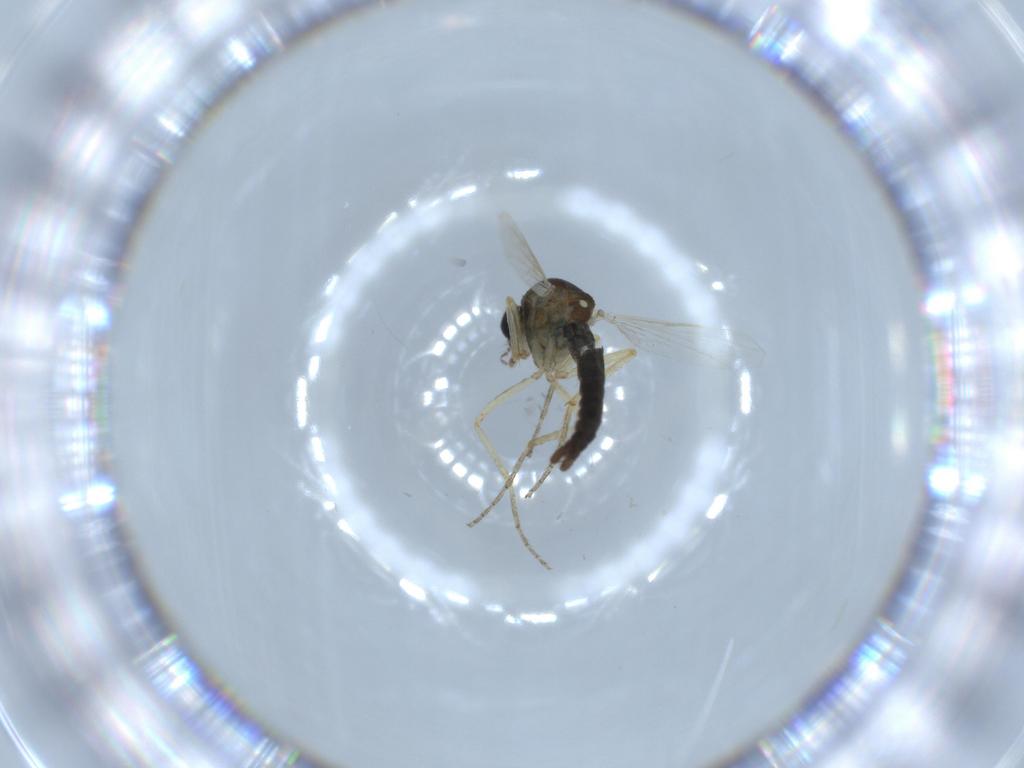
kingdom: Animalia
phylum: Arthropoda
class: Insecta
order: Diptera
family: Ceratopogonidae
